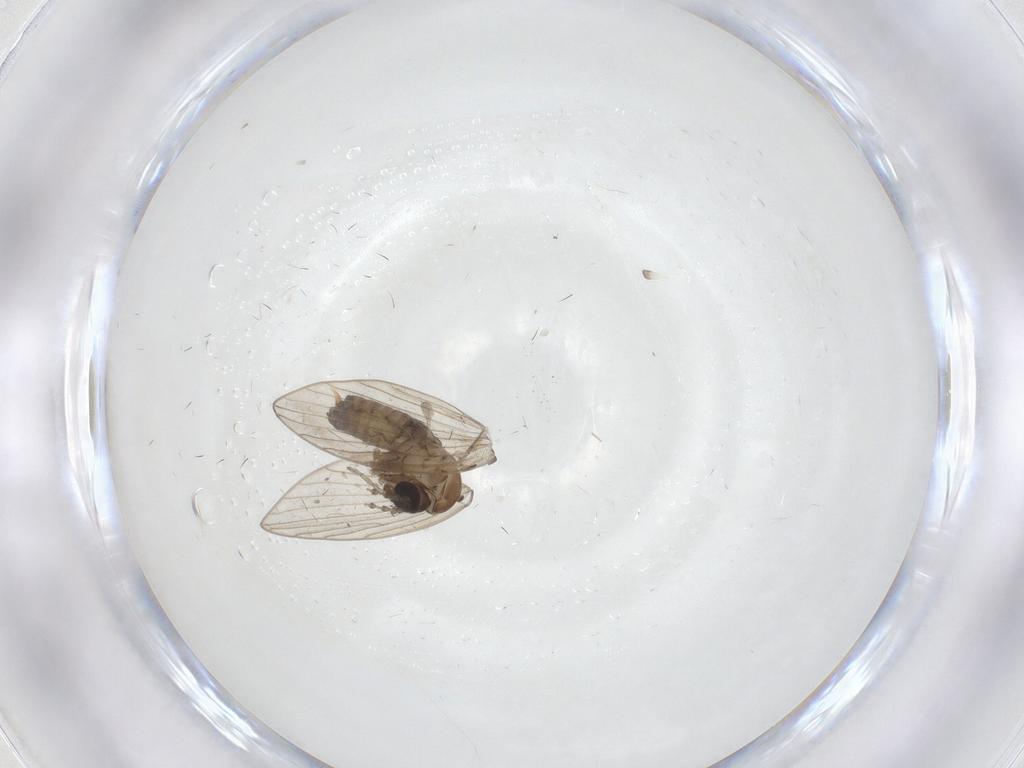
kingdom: Animalia
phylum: Arthropoda
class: Insecta
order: Diptera
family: Psychodidae
